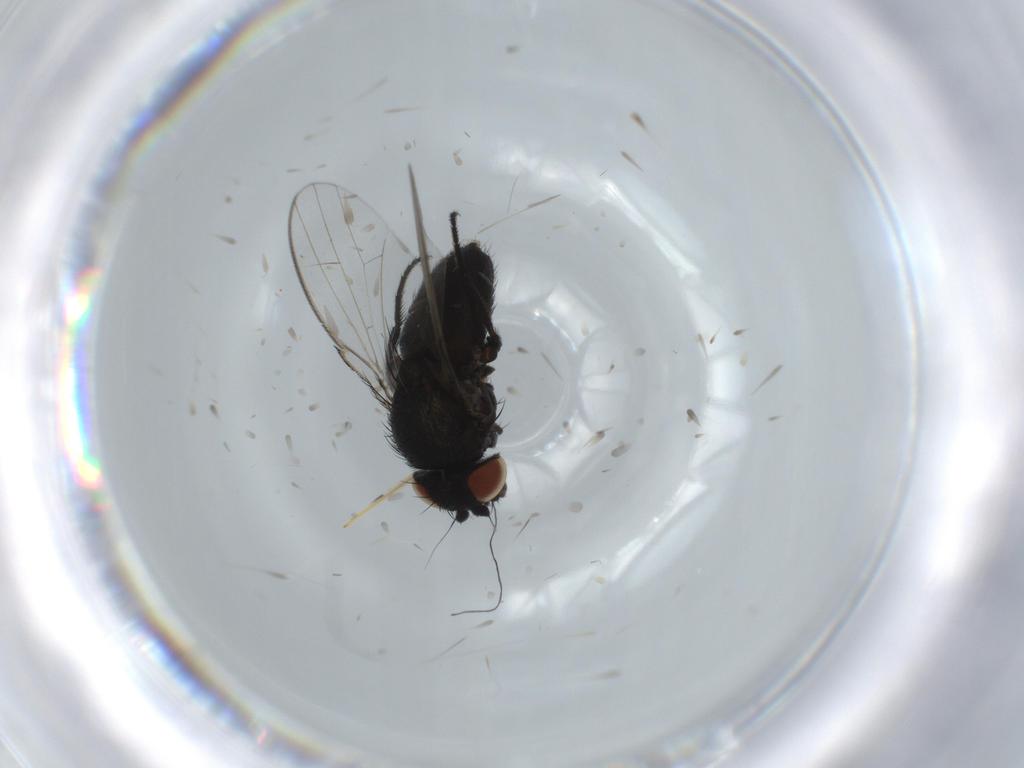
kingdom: Animalia
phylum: Arthropoda
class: Insecta
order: Diptera
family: Milichiidae
